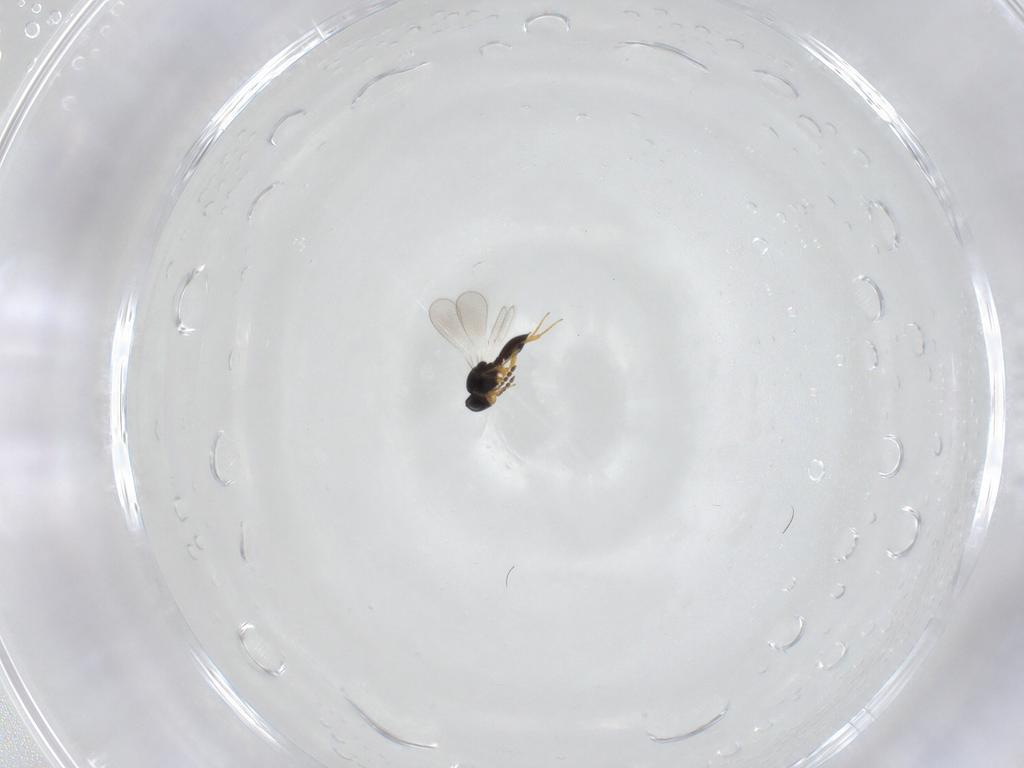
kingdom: Animalia
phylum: Arthropoda
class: Insecta
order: Hymenoptera
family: Platygastridae
